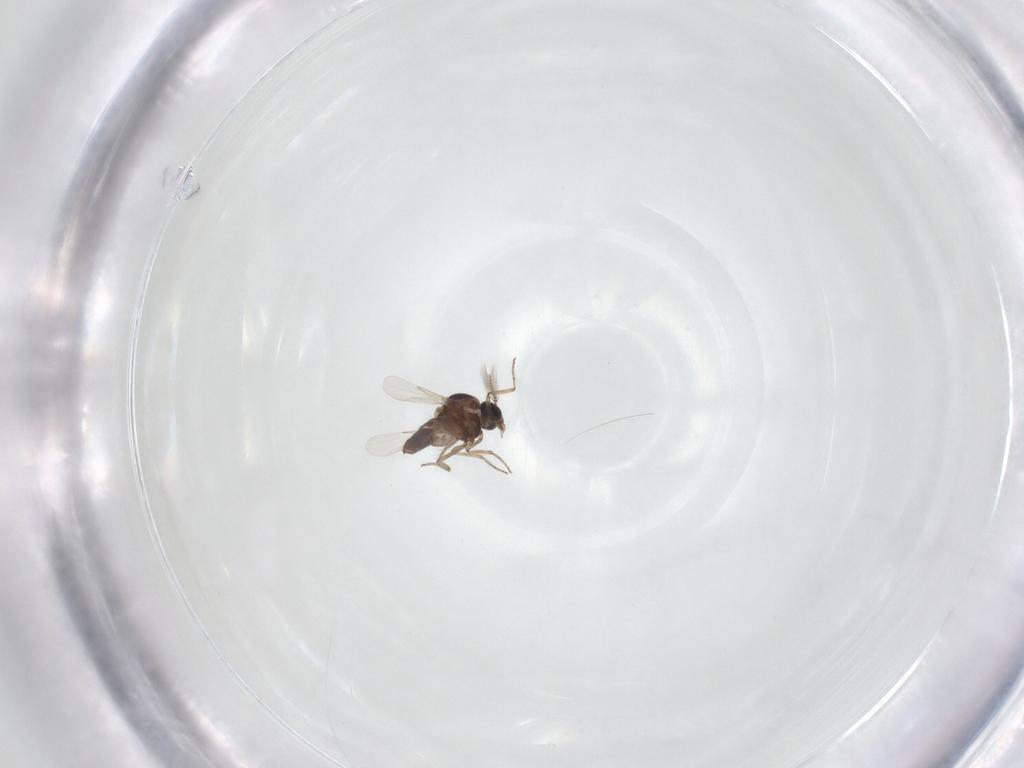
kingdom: Animalia
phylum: Arthropoda
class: Insecta
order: Diptera
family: Ceratopogonidae
